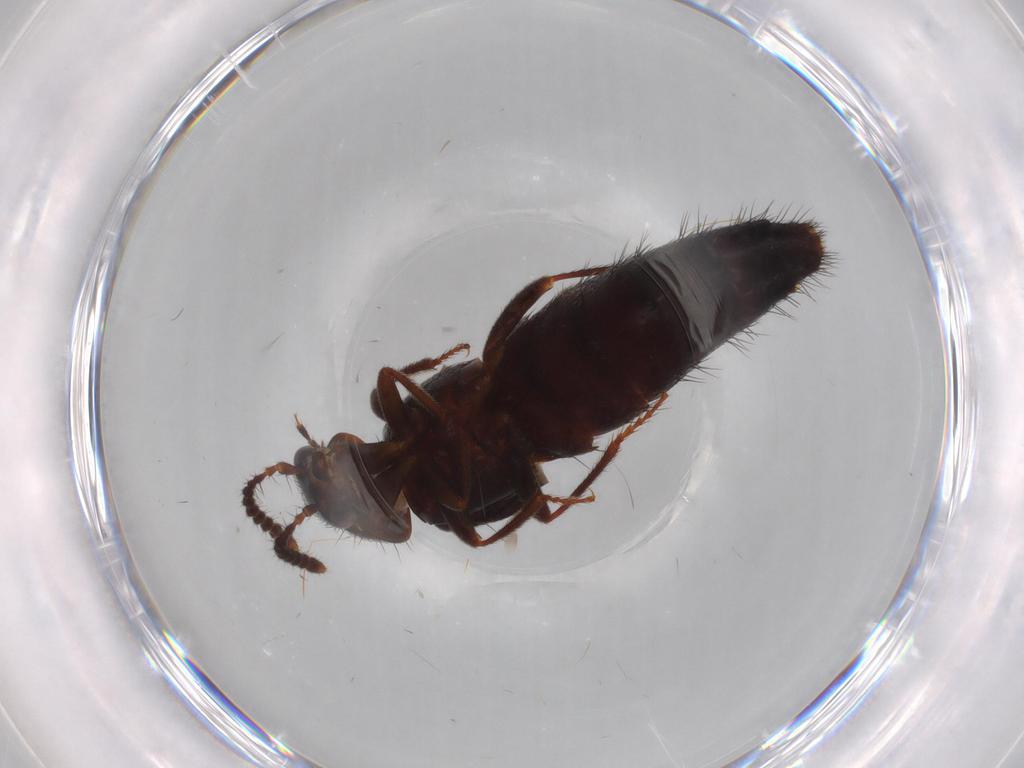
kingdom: Animalia
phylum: Arthropoda
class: Insecta
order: Coleoptera
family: Staphylinidae
